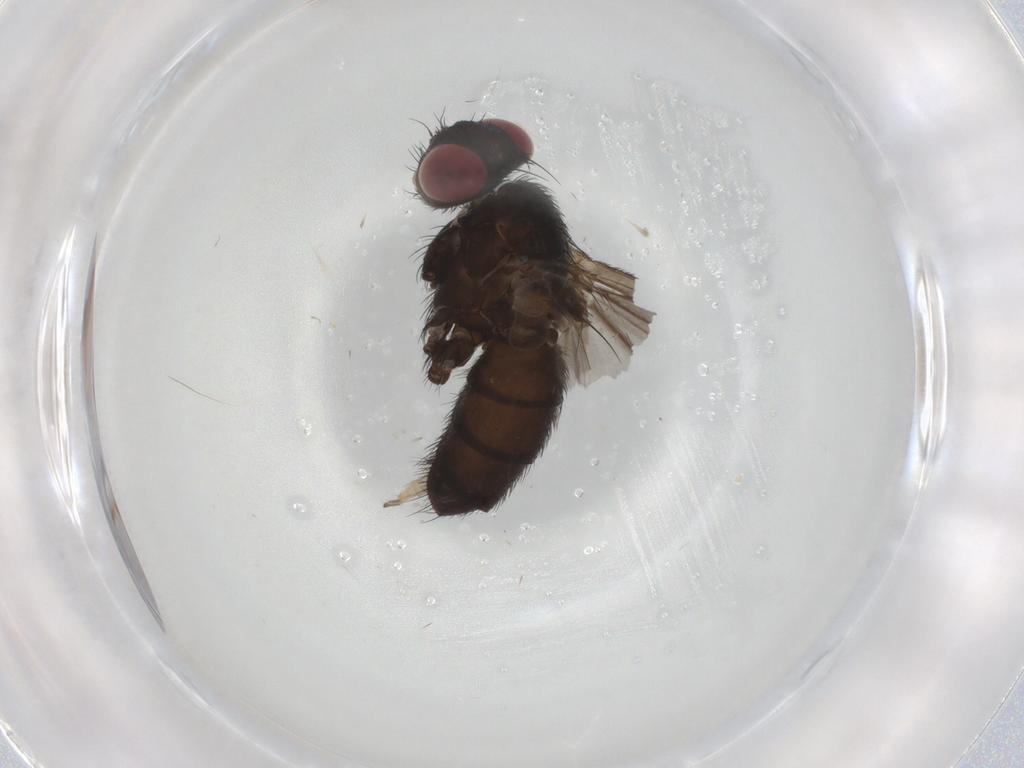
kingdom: Animalia
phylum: Arthropoda
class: Insecta
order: Diptera
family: Tachinidae
